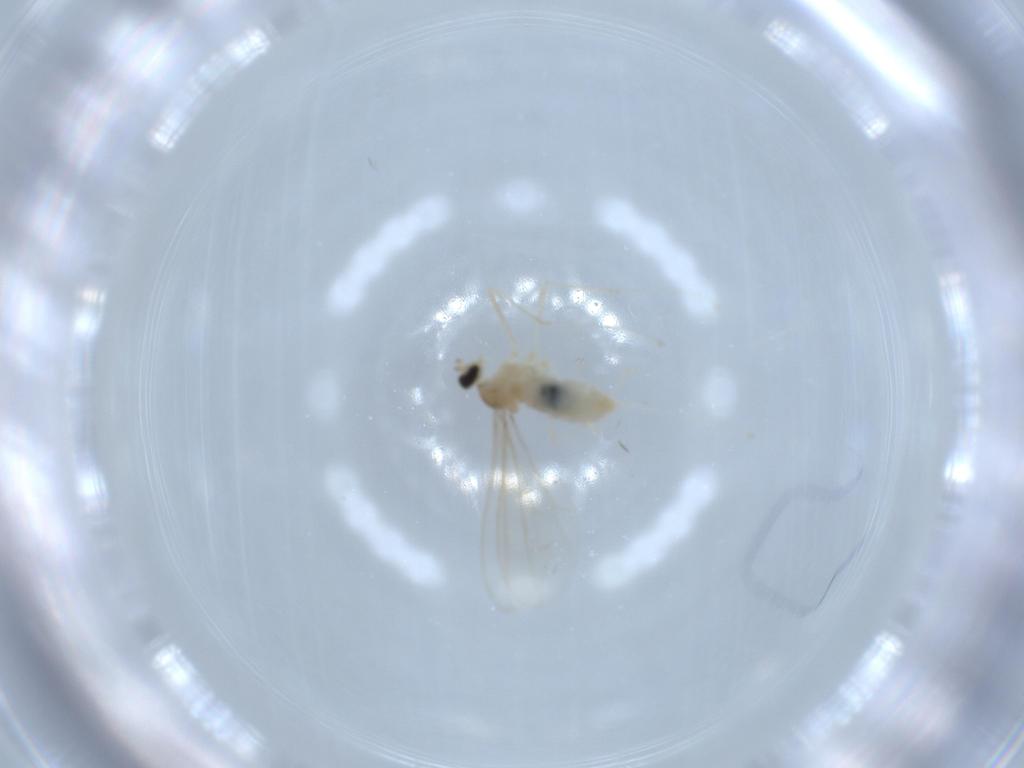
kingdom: Animalia
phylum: Arthropoda
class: Insecta
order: Diptera
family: Cecidomyiidae
